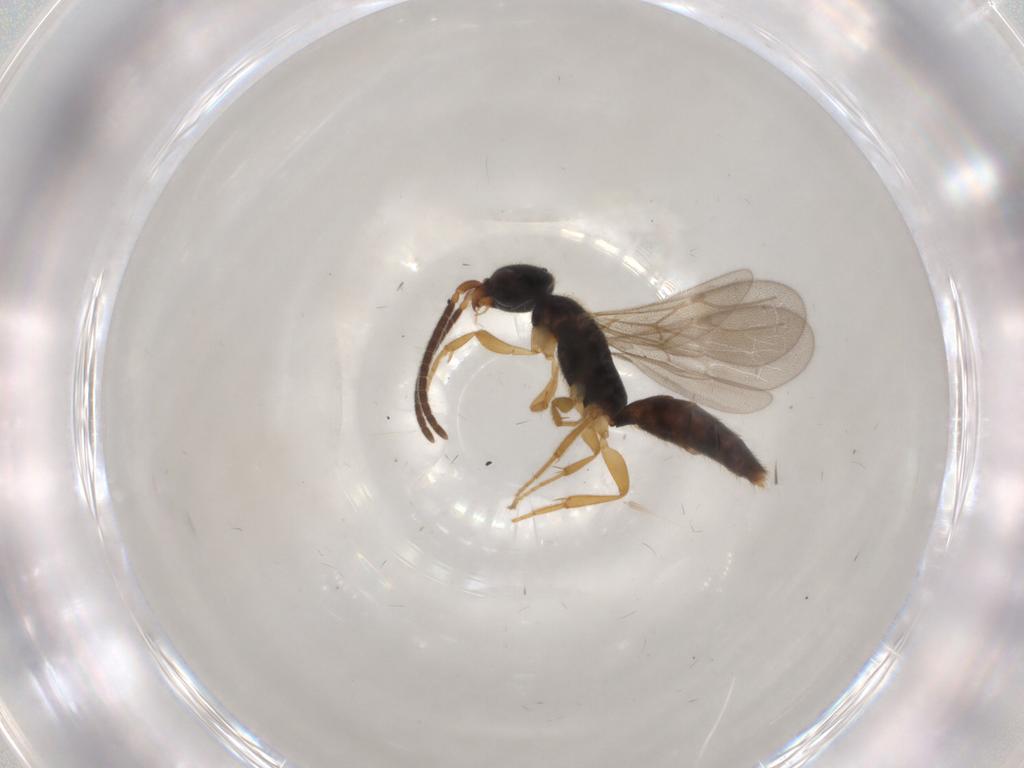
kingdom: Animalia
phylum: Arthropoda
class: Insecta
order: Hymenoptera
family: Bethylidae
